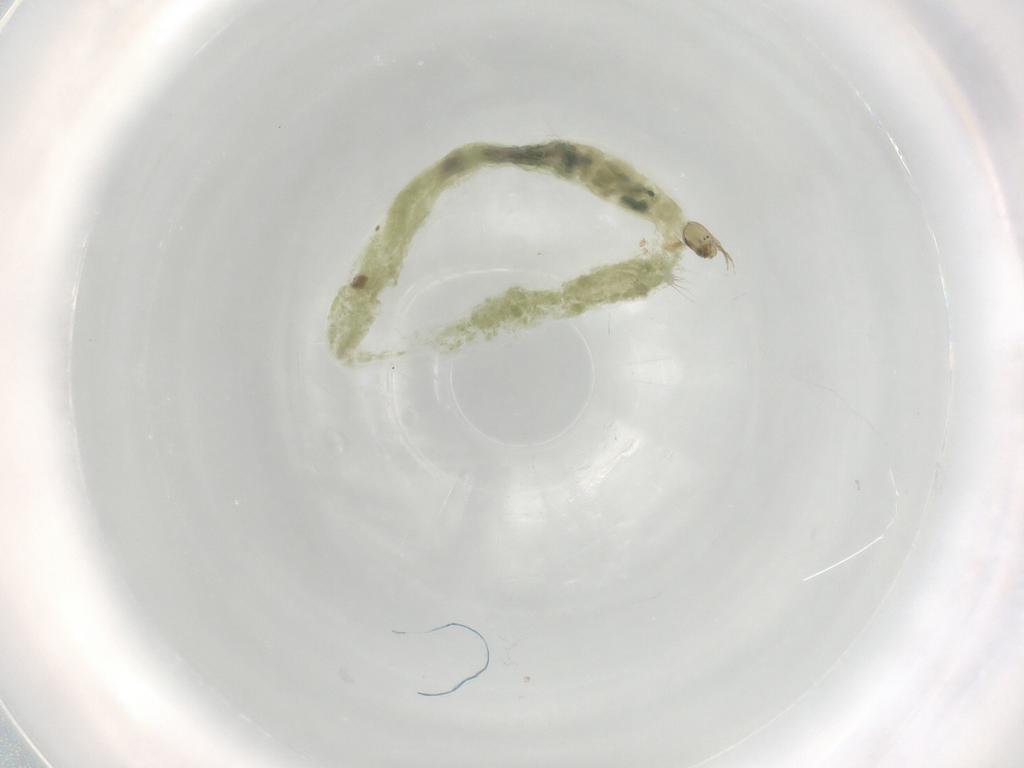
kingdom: Animalia
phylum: Arthropoda
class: Insecta
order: Diptera
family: Chironomidae
